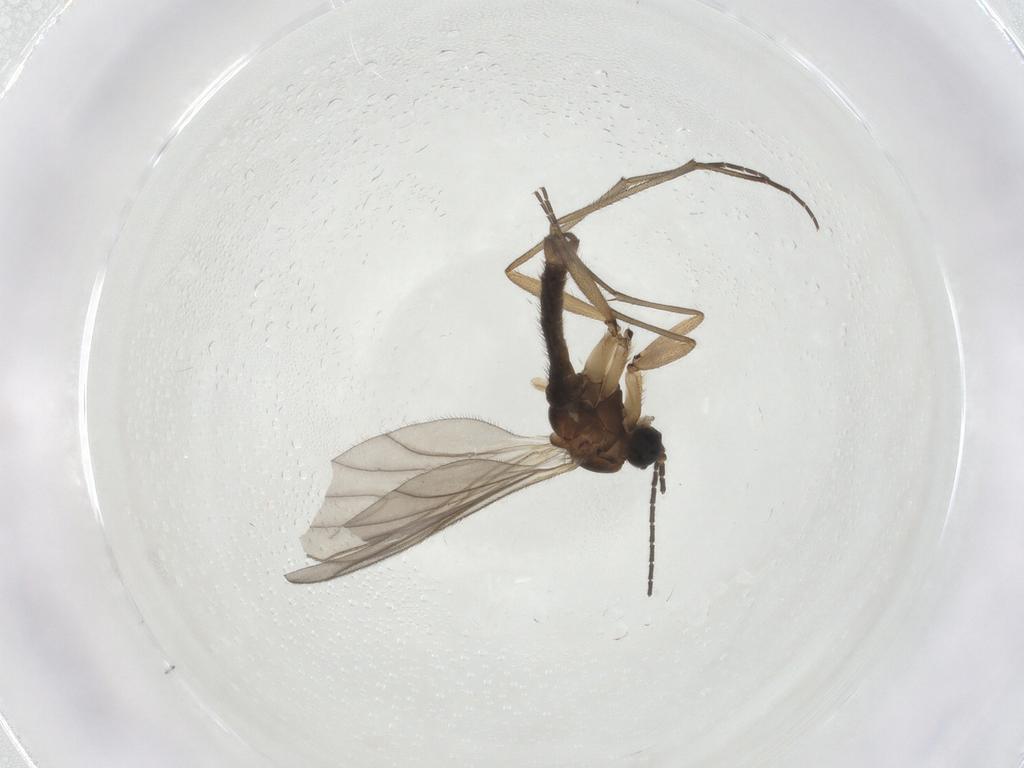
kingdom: Animalia
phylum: Arthropoda
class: Insecta
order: Diptera
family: Sciaridae
